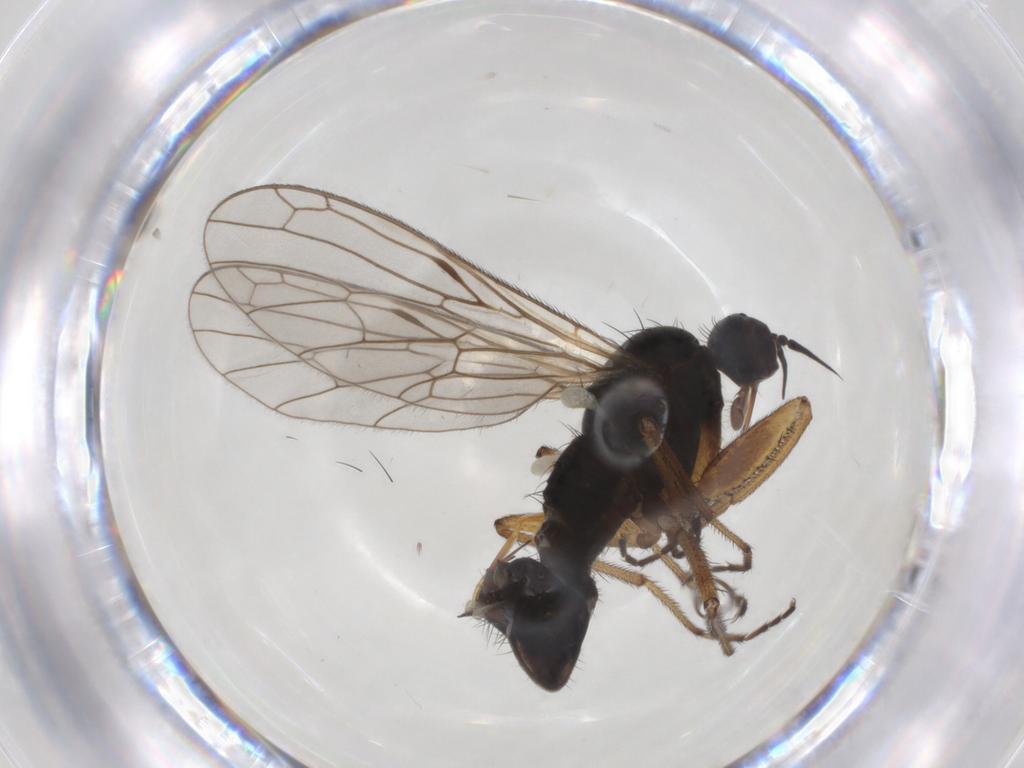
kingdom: Animalia
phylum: Arthropoda
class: Insecta
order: Diptera
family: Empididae
